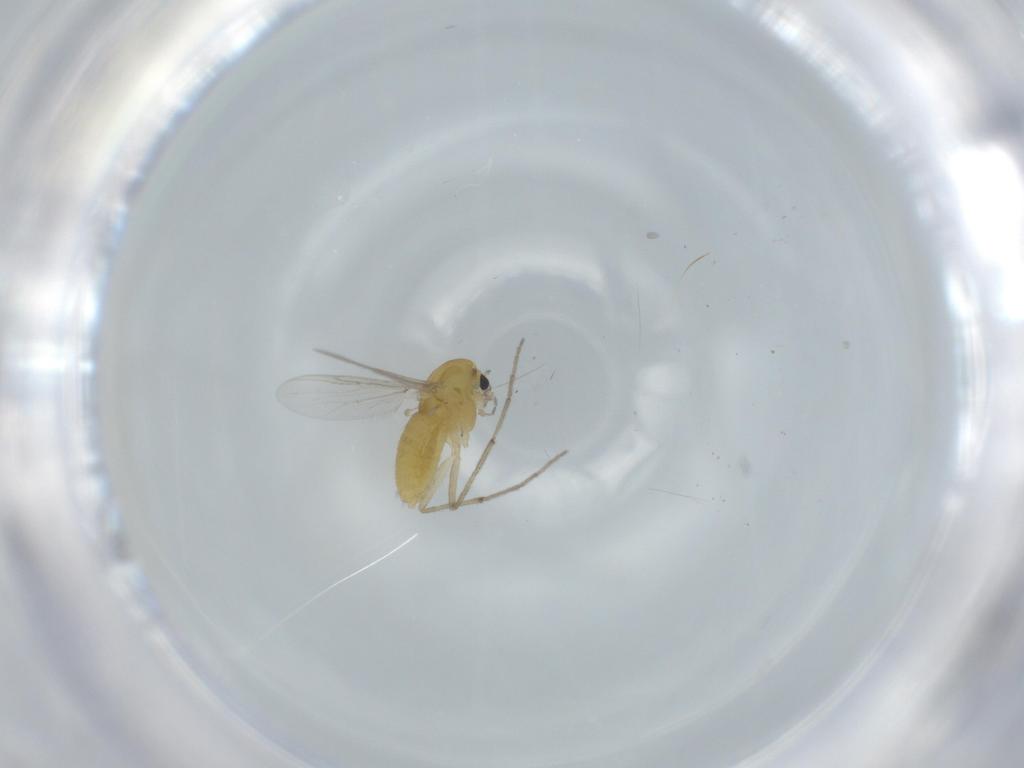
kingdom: Animalia
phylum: Arthropoda
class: Insecta
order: Diptera
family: Chironomidae
